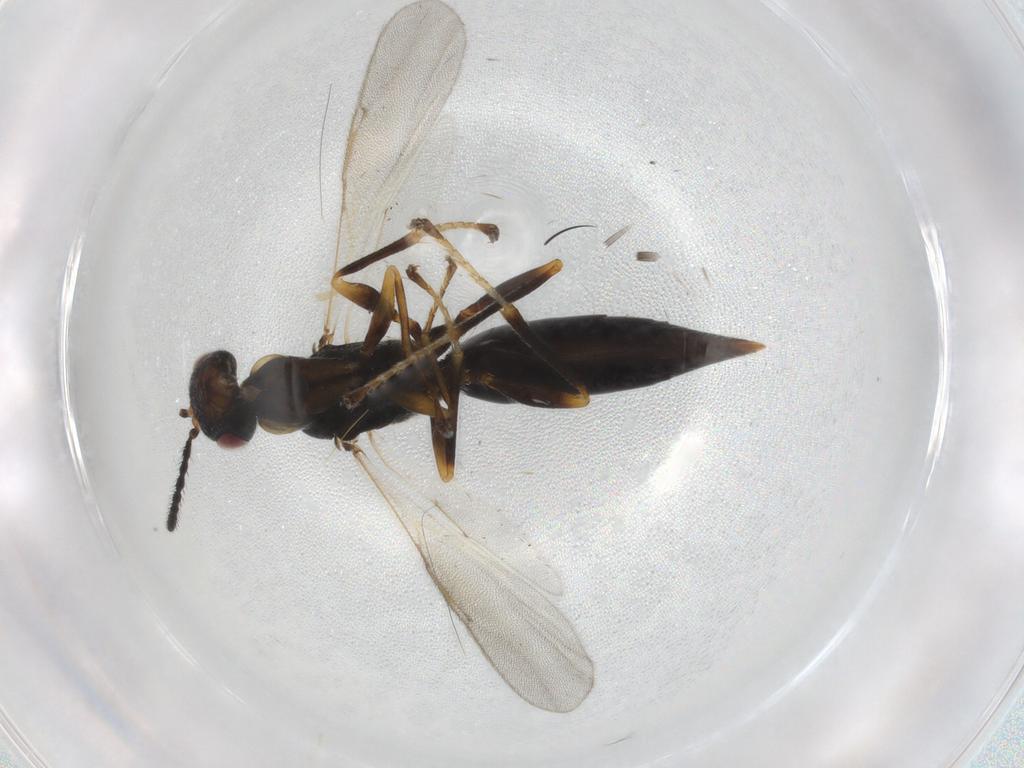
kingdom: Animalia
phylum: Arthropoda
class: Insecta
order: Hymenoptera
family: Eurytomidae
